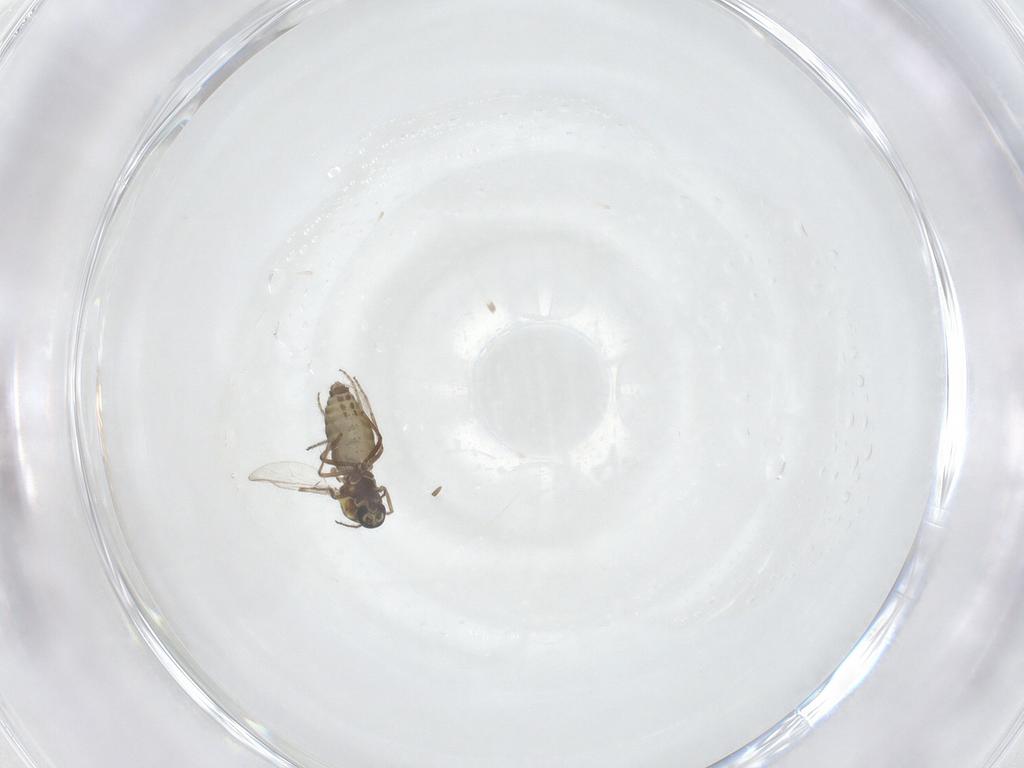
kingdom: Animalia
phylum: Arthropoda
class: Insecta
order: Diptera
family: Ceratopogonidae
